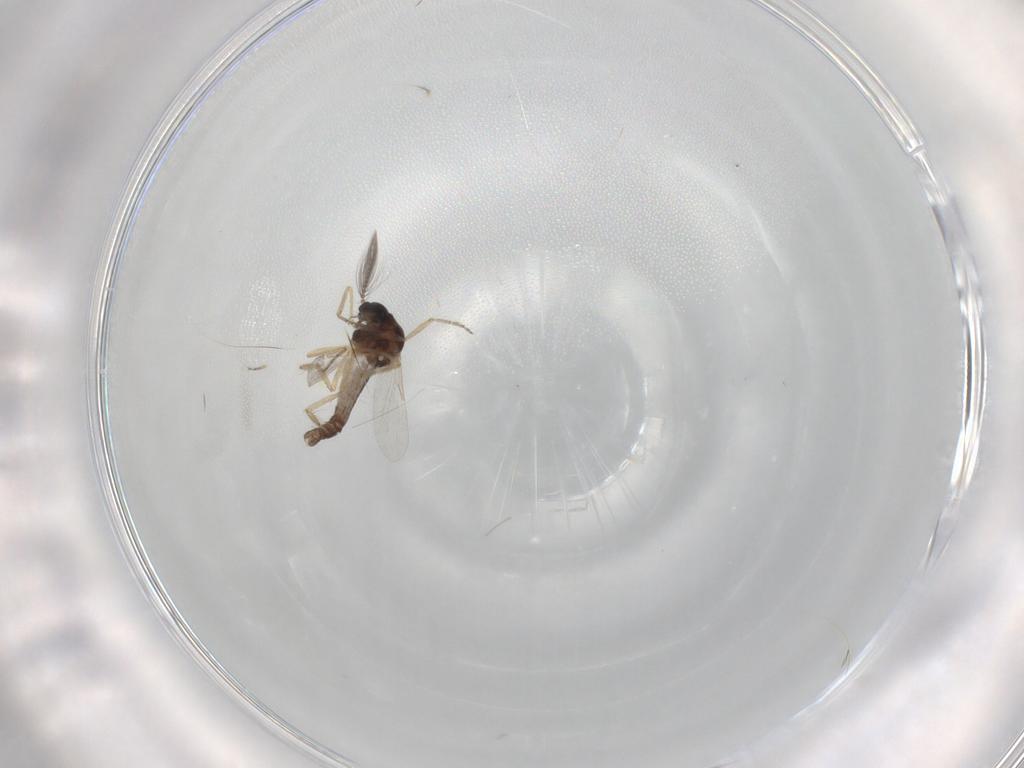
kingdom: Animalia
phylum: Arthropoda
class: Insecta
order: Diptera
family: Ceratopogonidae
